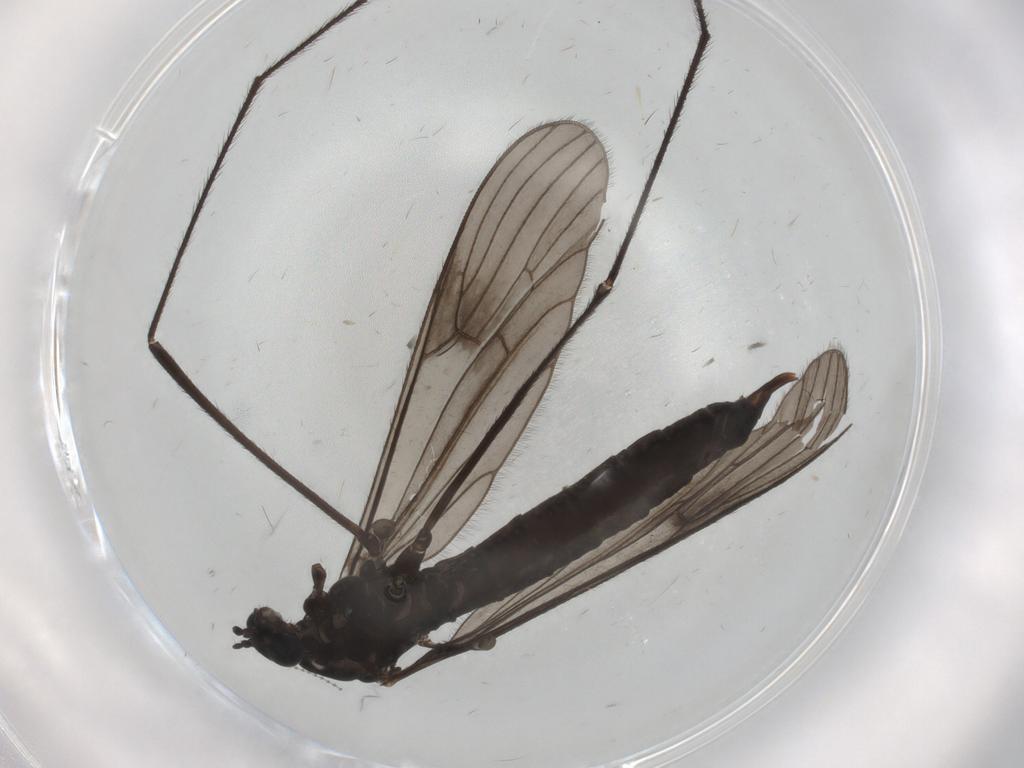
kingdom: Animalia
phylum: Arthropoda
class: Insecta
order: Diptera
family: Limoniidae
